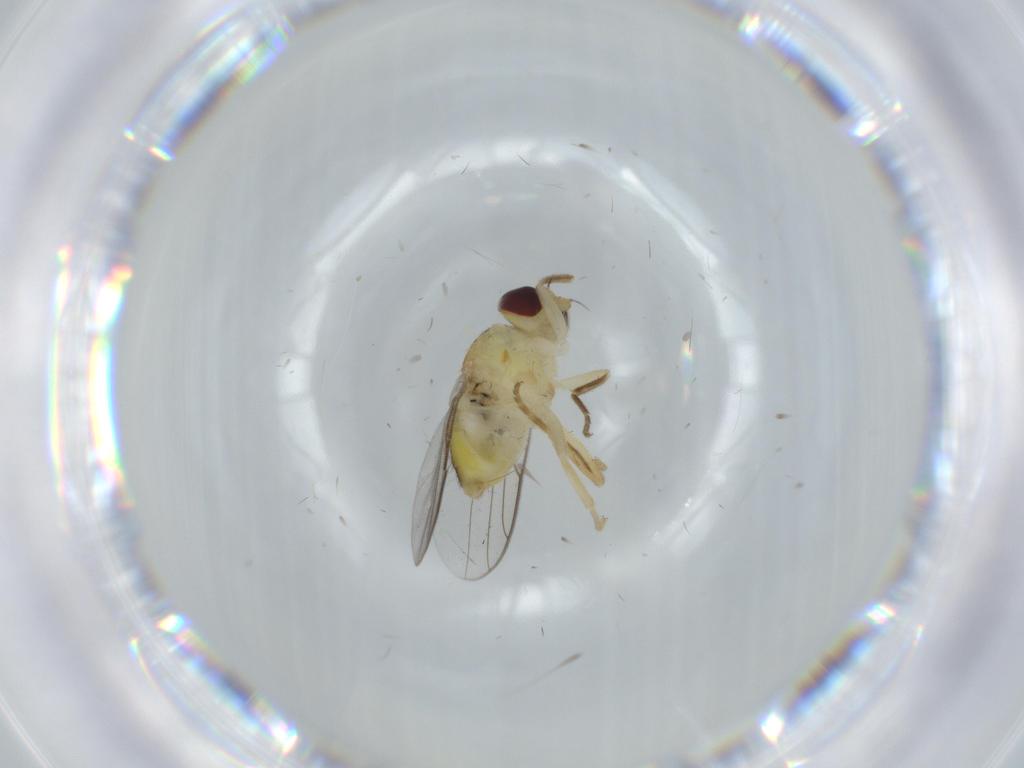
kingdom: Animalia
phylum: Arthropoda
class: Insecta
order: Diptera
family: Chloropidae
